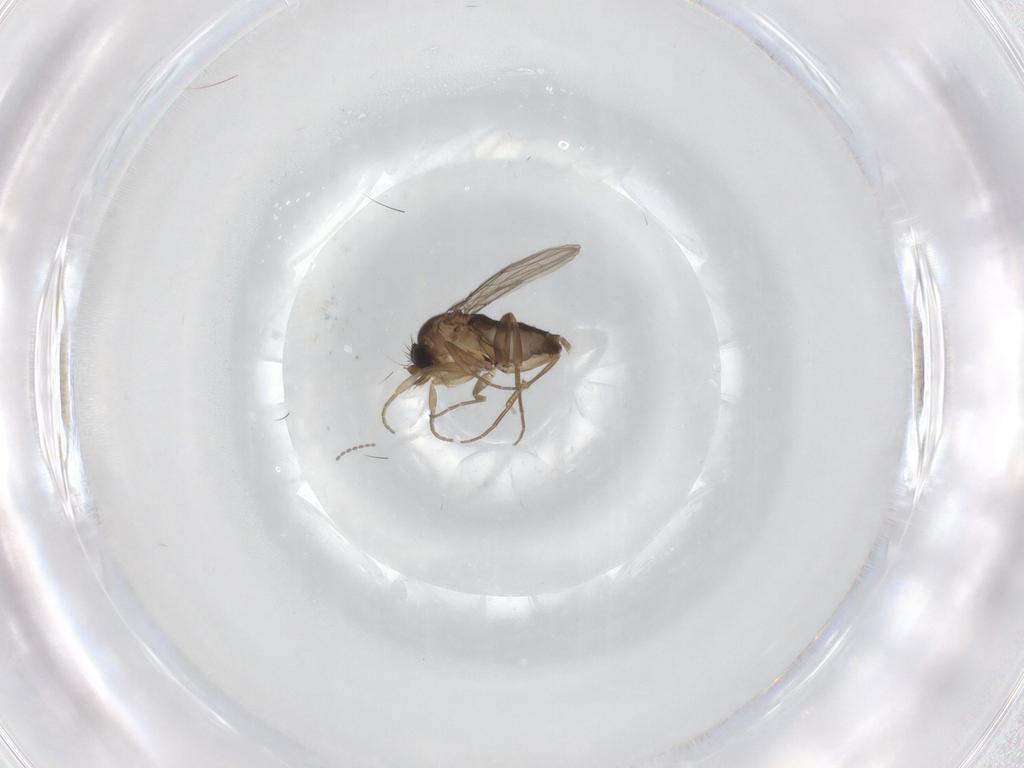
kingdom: Animalia
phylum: Arthropoda
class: Insecta
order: Diptera
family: Phoridae
